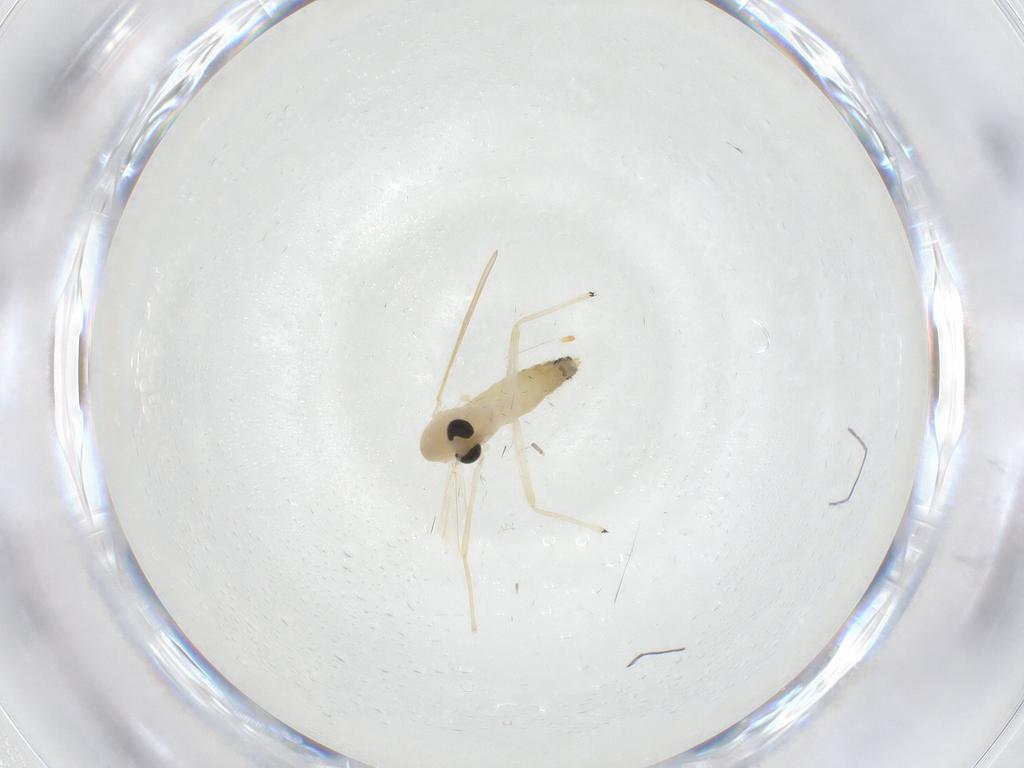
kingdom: Animalia
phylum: Arthropoda
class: Insecta
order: Diptera
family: Chironomidae
